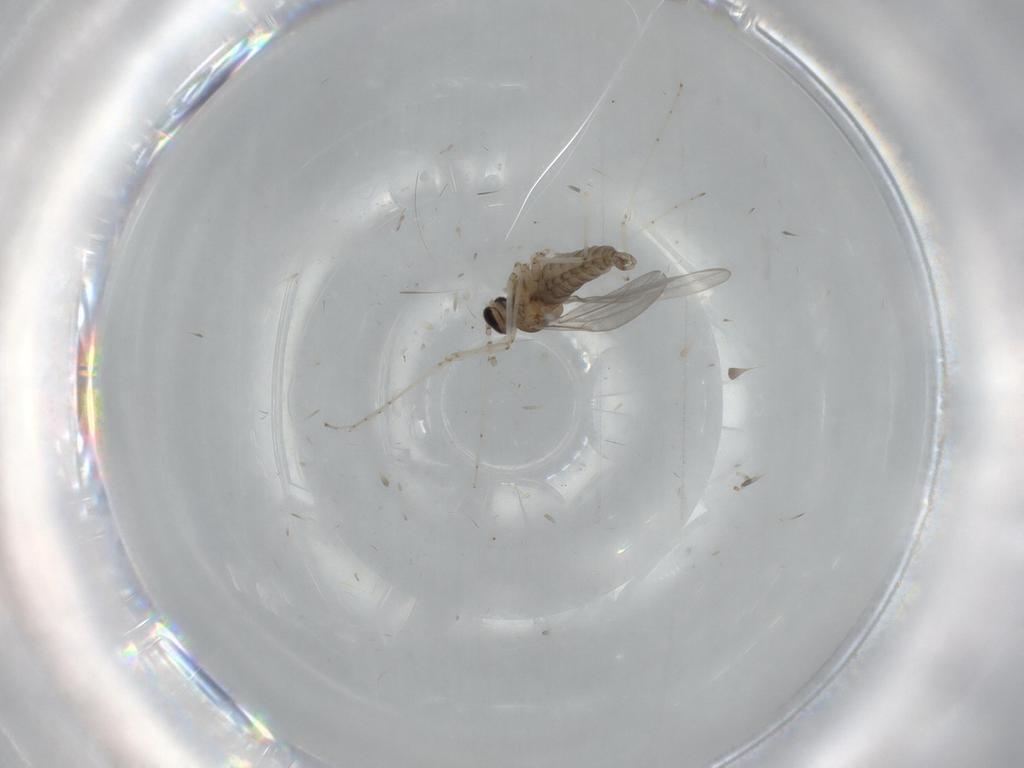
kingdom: Animalia
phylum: Arthropoda
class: Insecta
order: Diptera
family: Cecidomyiidae
